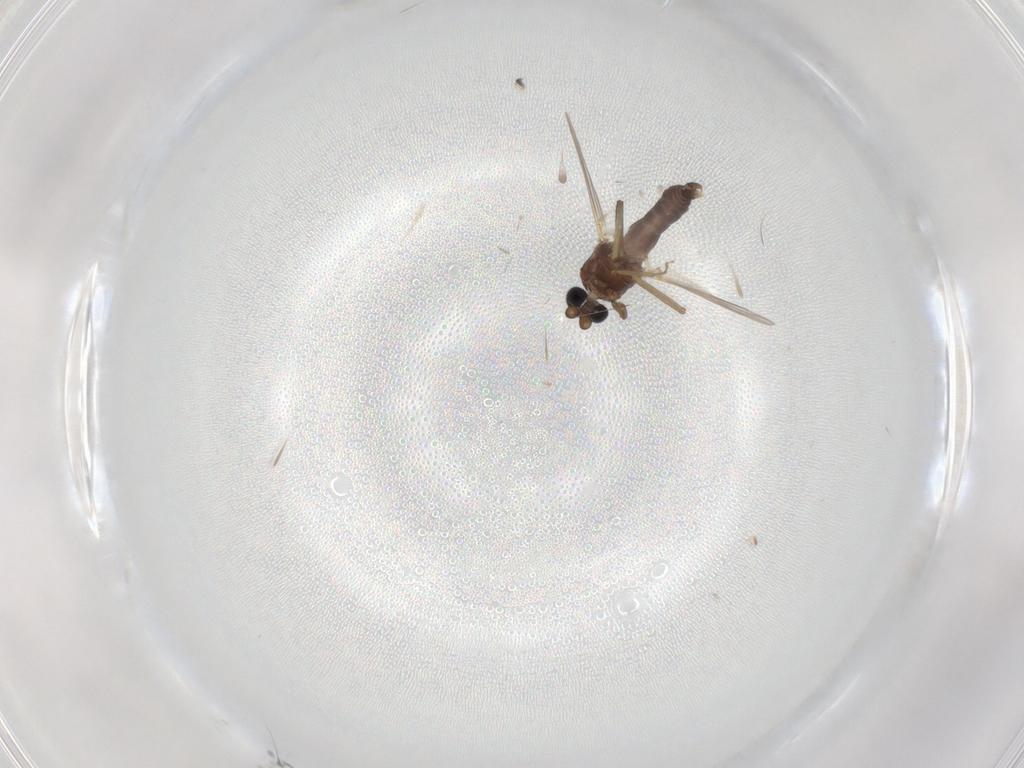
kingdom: Animalia
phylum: Arthropoda
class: Insecta
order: Diptera
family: Ceratopogonidae
